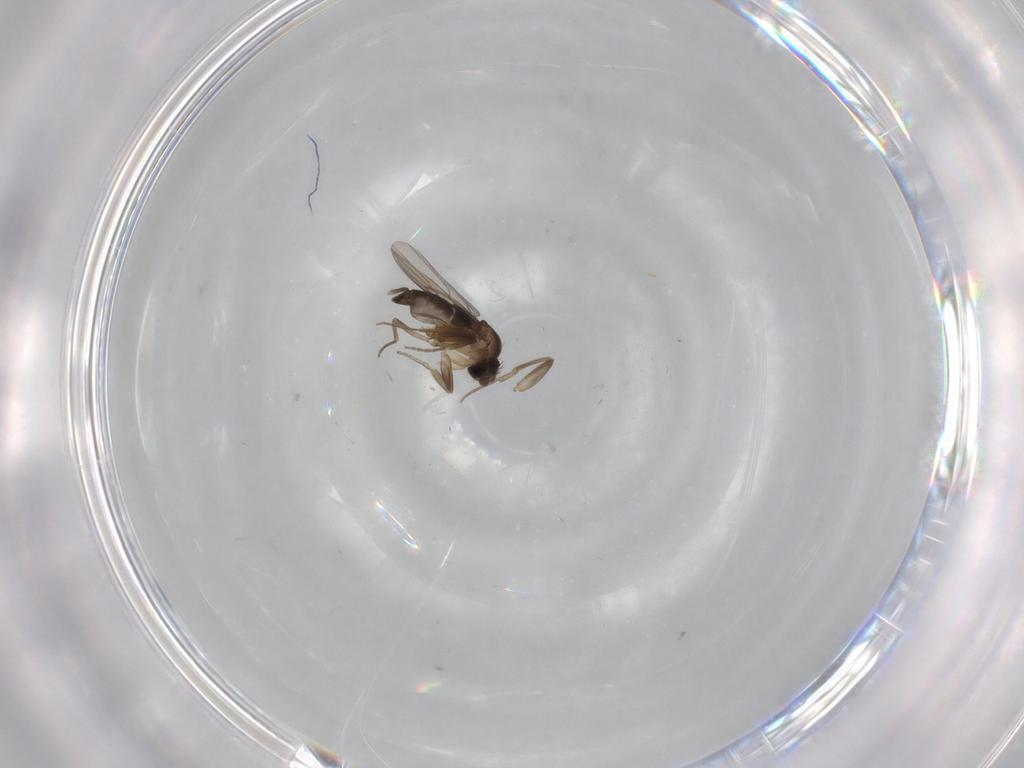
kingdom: Animalia
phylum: Arthropoda
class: Insecta
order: Diptera
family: Phoridae
